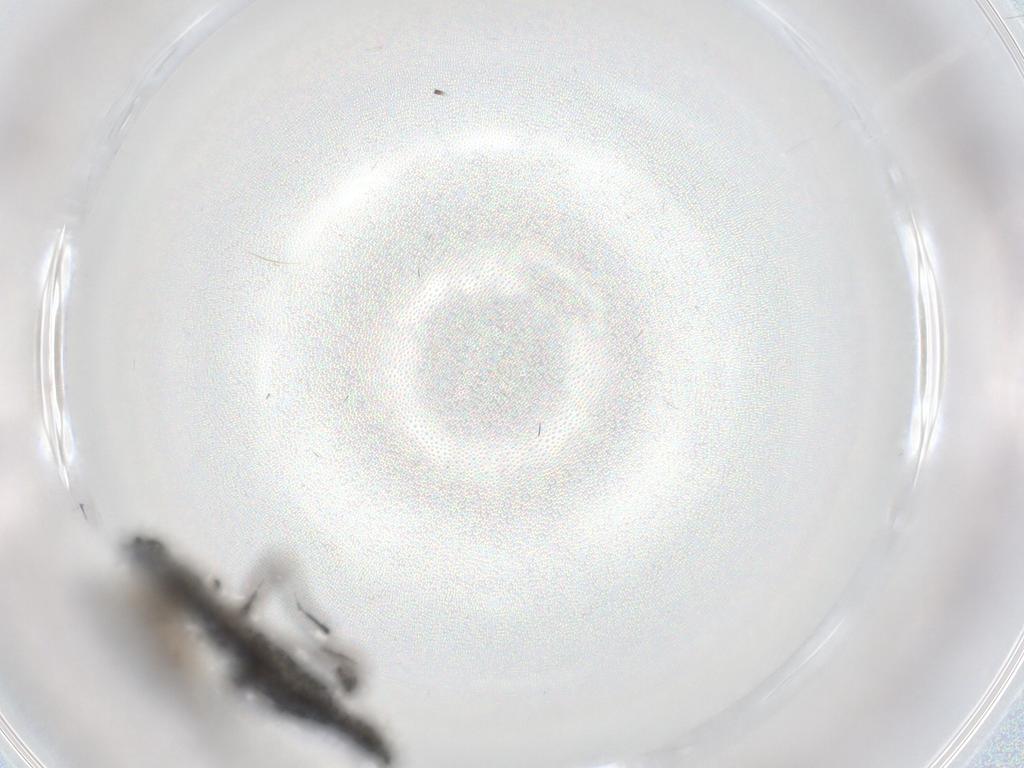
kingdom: Animalia
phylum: Arthropoda
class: Insecta
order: Diptera
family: Sciaridae
